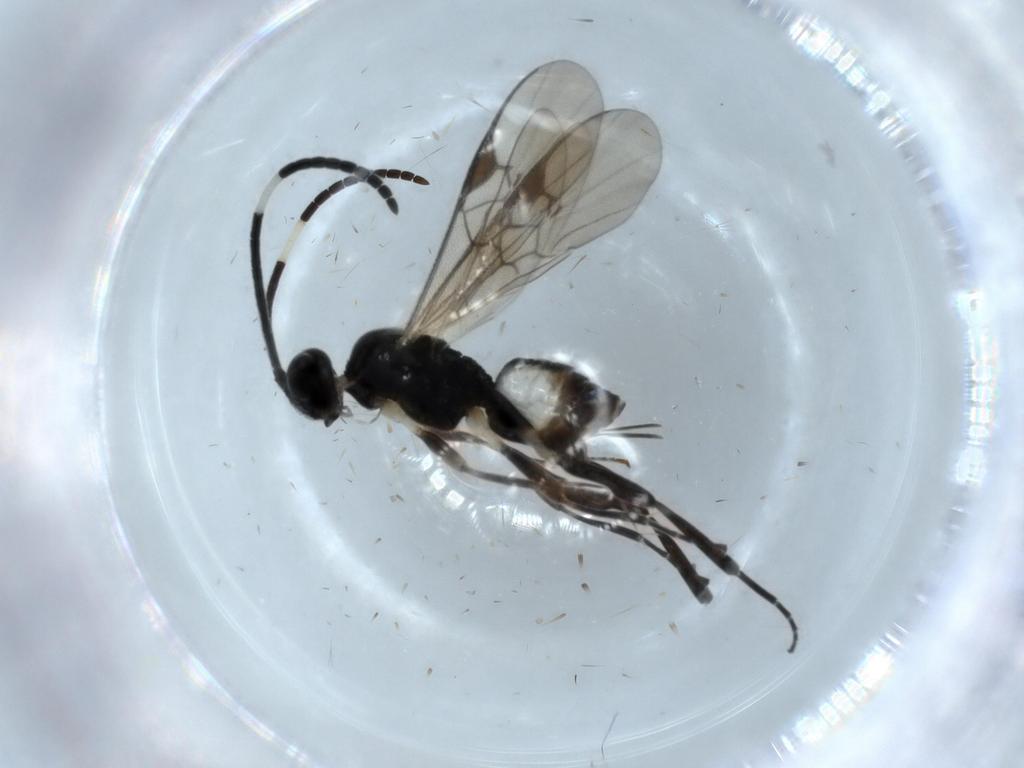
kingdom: Animalia
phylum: Arthropoda
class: Insecta
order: Lepidoptera
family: Tortricidae
